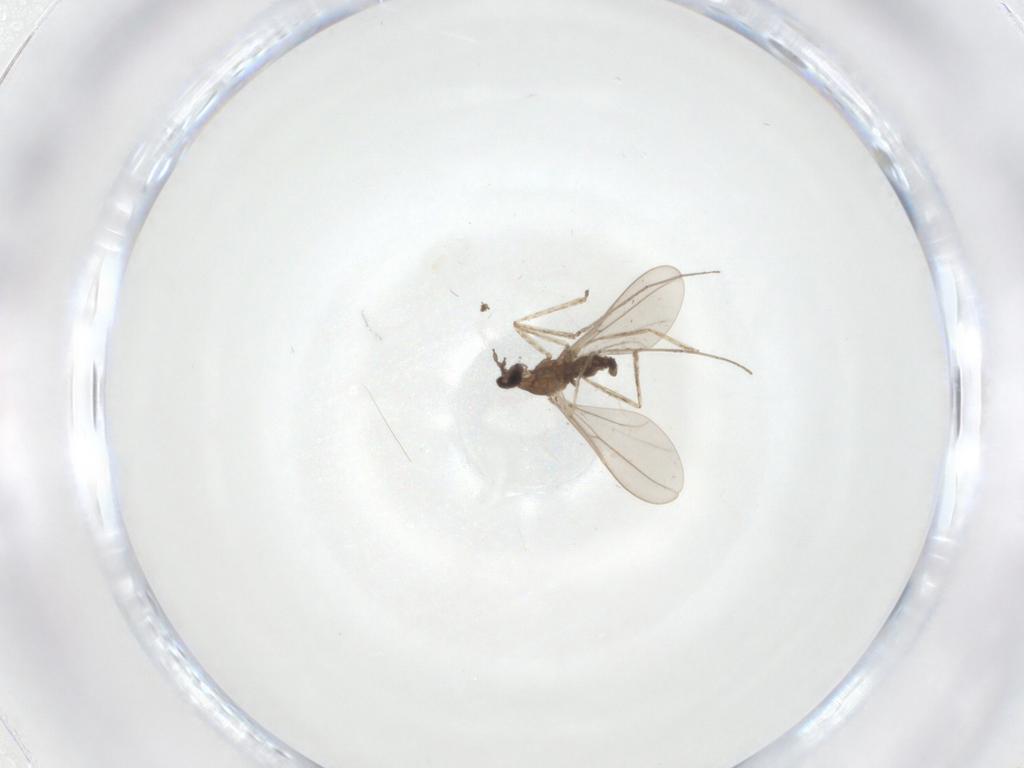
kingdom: Animalia
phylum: Arthropoda
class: Insecta
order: Diptera
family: Cecidomyiidae
